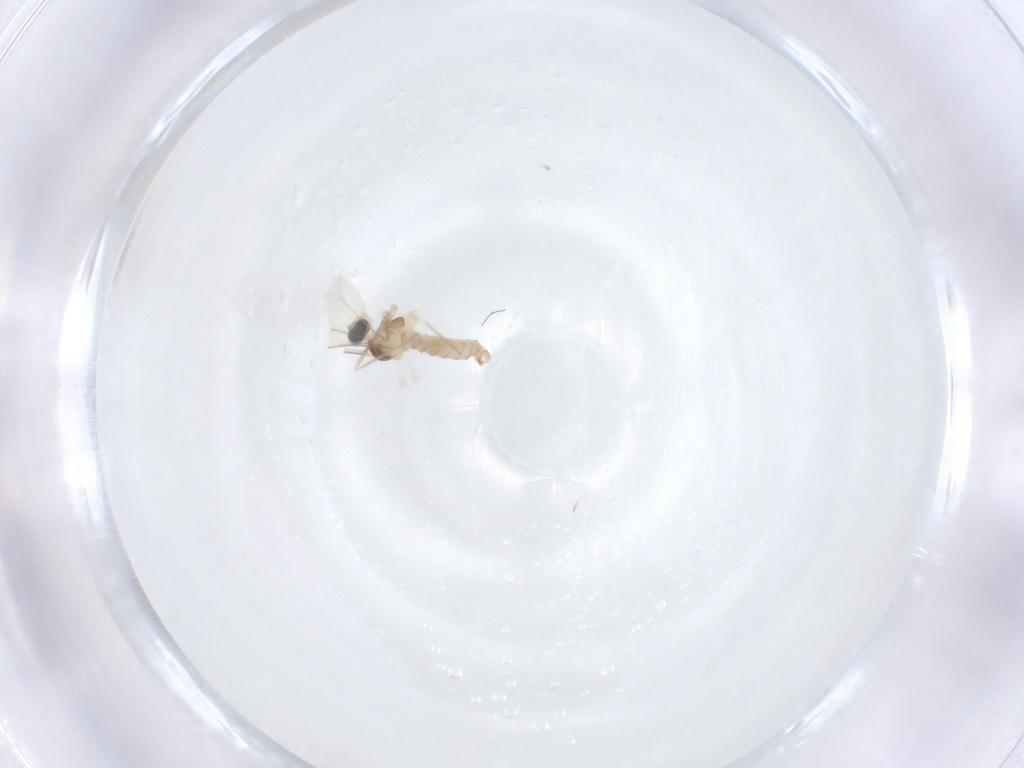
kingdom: Animalia
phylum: Arthropoda
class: Insecta
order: Diptera
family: Cecidomyiidae
